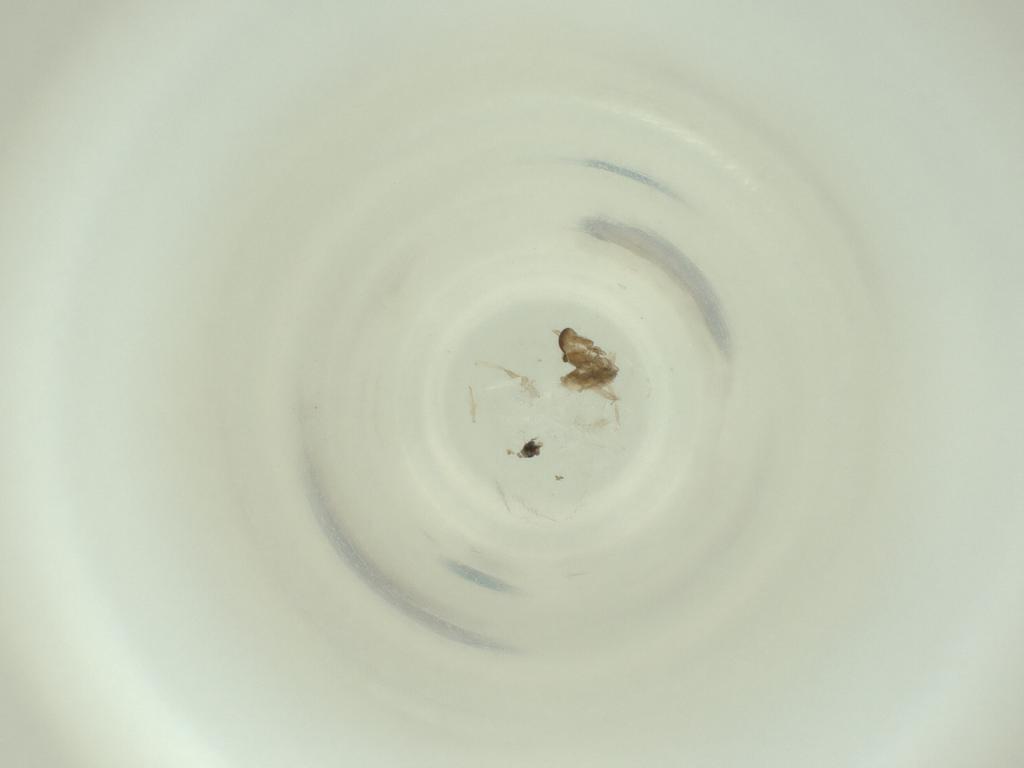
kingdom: Animalia
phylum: Arthropoda
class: Insecta
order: Diptera
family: Cecidomyiidae
